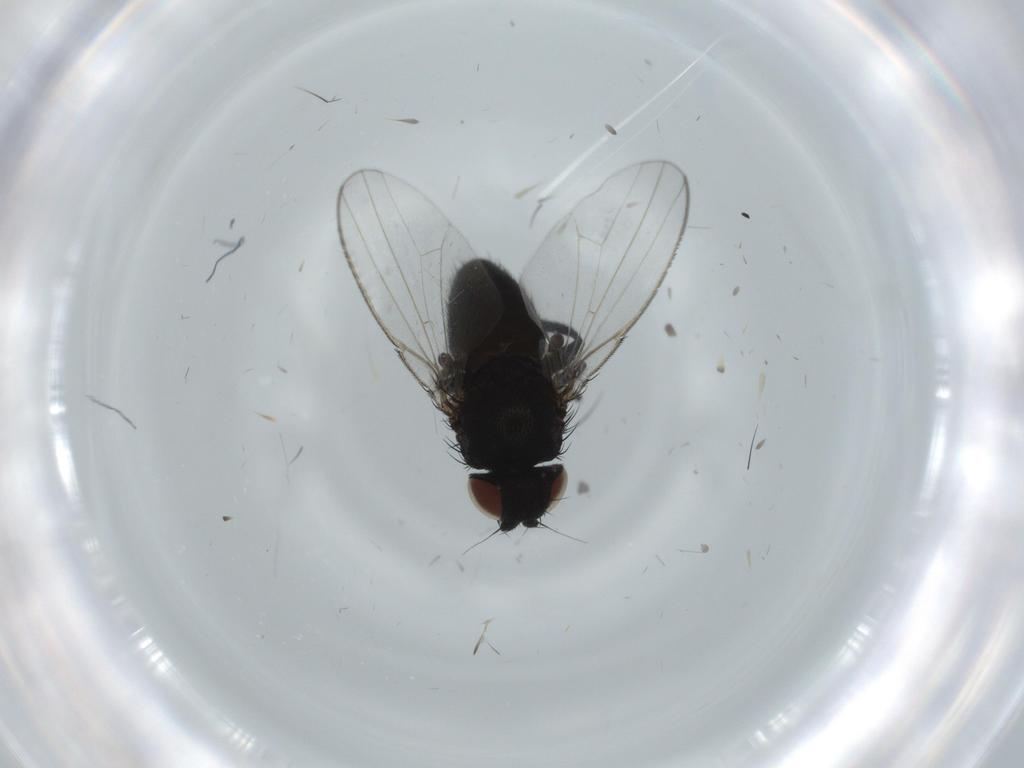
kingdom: Animalia
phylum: Arthropoda
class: Insecta
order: Diptera
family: Milichiidae
